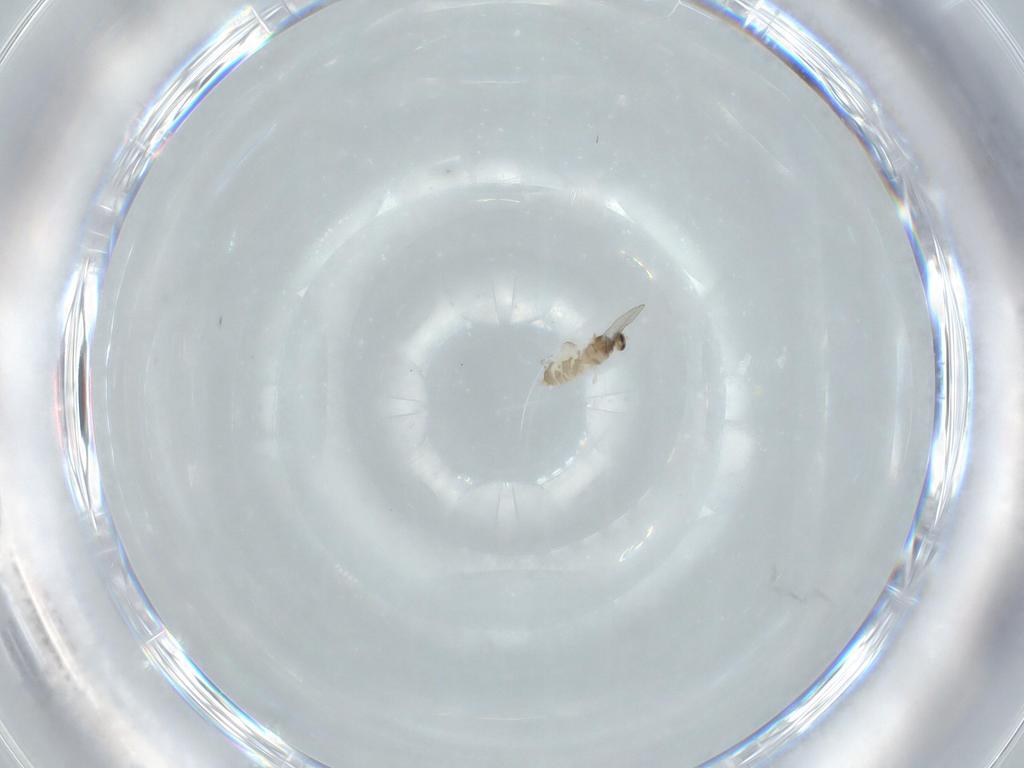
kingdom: Animalia
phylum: Arthropoda
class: Insecta
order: Diptera
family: Cecidomyiidae
